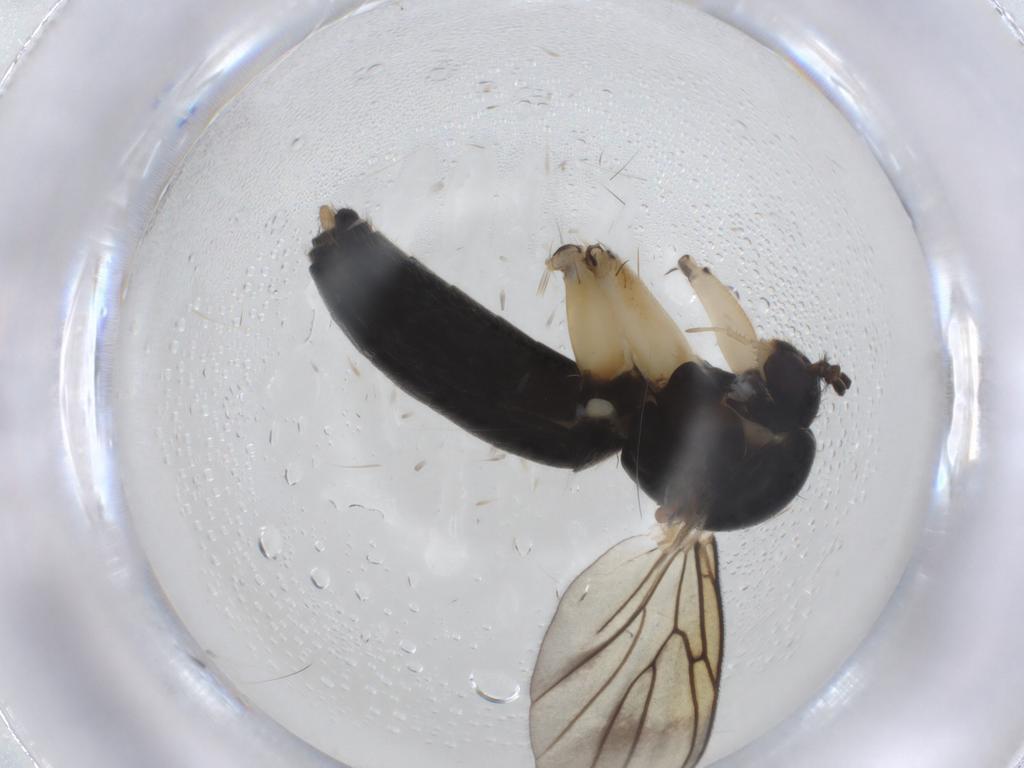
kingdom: Animalia
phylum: Arthropoda
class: Insecta
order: Diptera
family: Mycetophilidae
